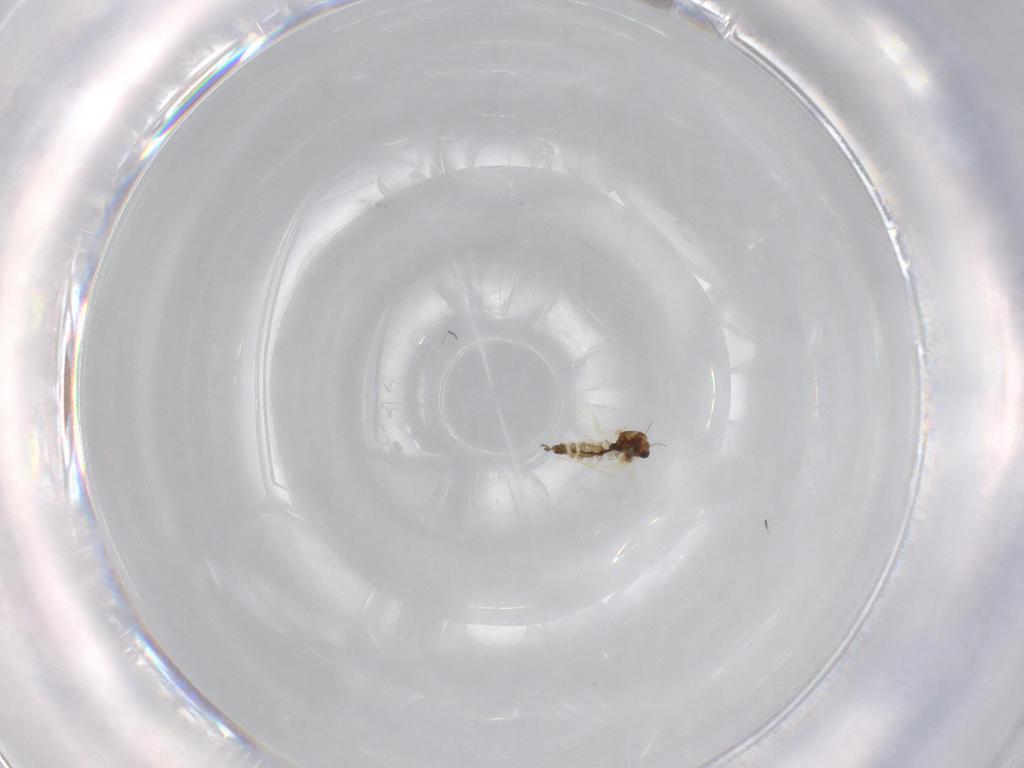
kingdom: Animalia
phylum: Arthropoda
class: Insecta
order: Diptera
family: Chironomidae
